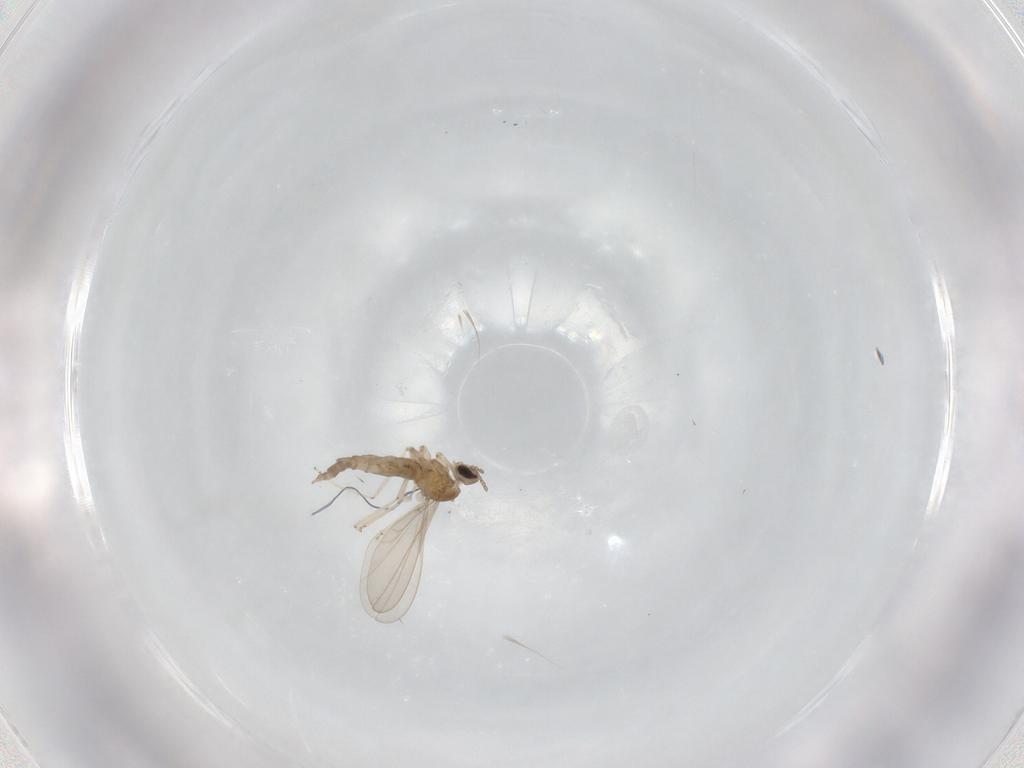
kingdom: Animalia
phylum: Arthropoda
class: Insecta
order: Diptera
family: Cecidomyiidae
